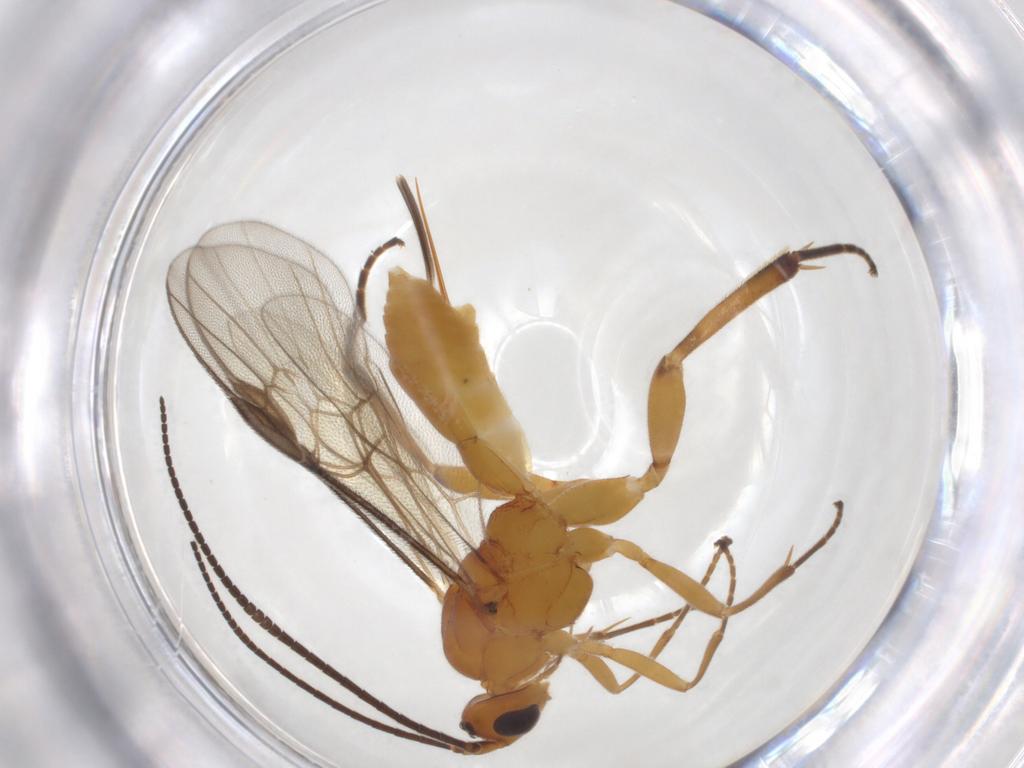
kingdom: Animalia
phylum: Arthropoda
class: Insecta
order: Hymenoptera
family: Braconidae
